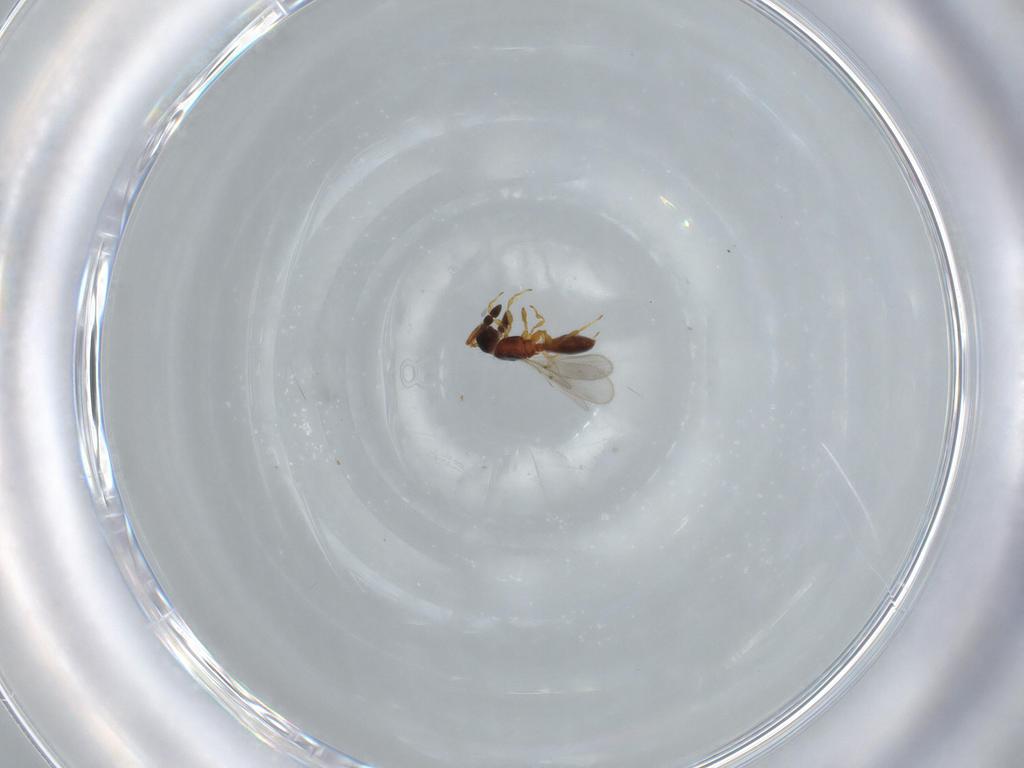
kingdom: Animalia
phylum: Arthropoda
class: Insecta
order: Hymenoptera
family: Diapriidae
